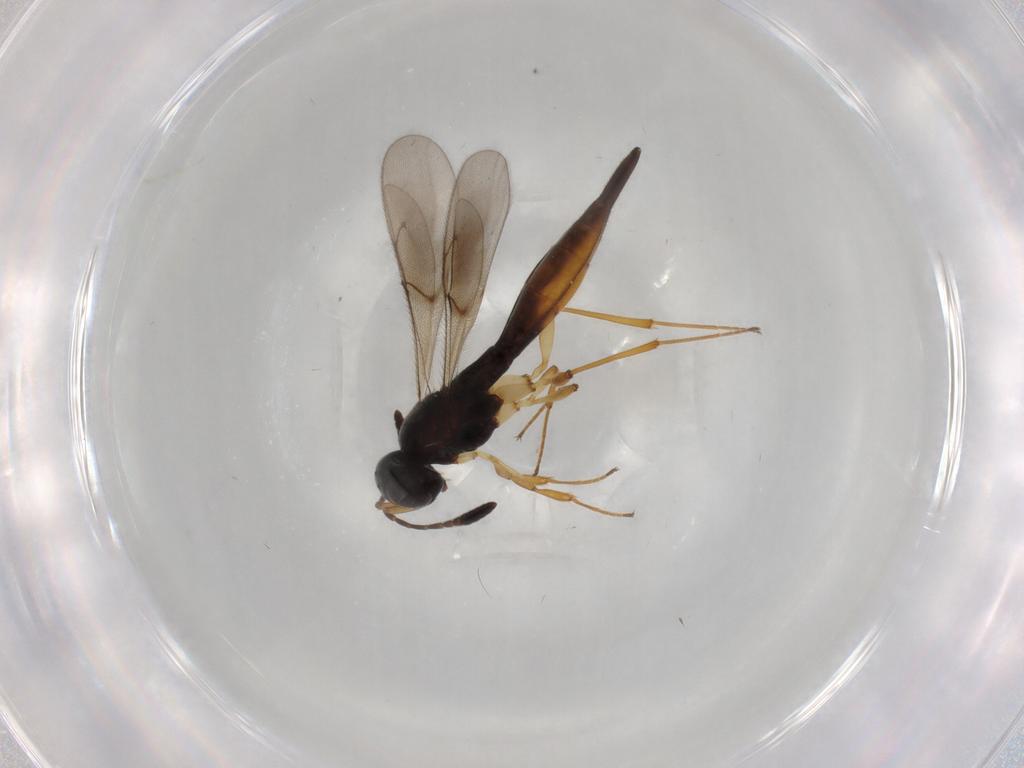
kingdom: Animalia
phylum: Arthropoda
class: Insecta
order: Hymenoptera
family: Scelionidae
